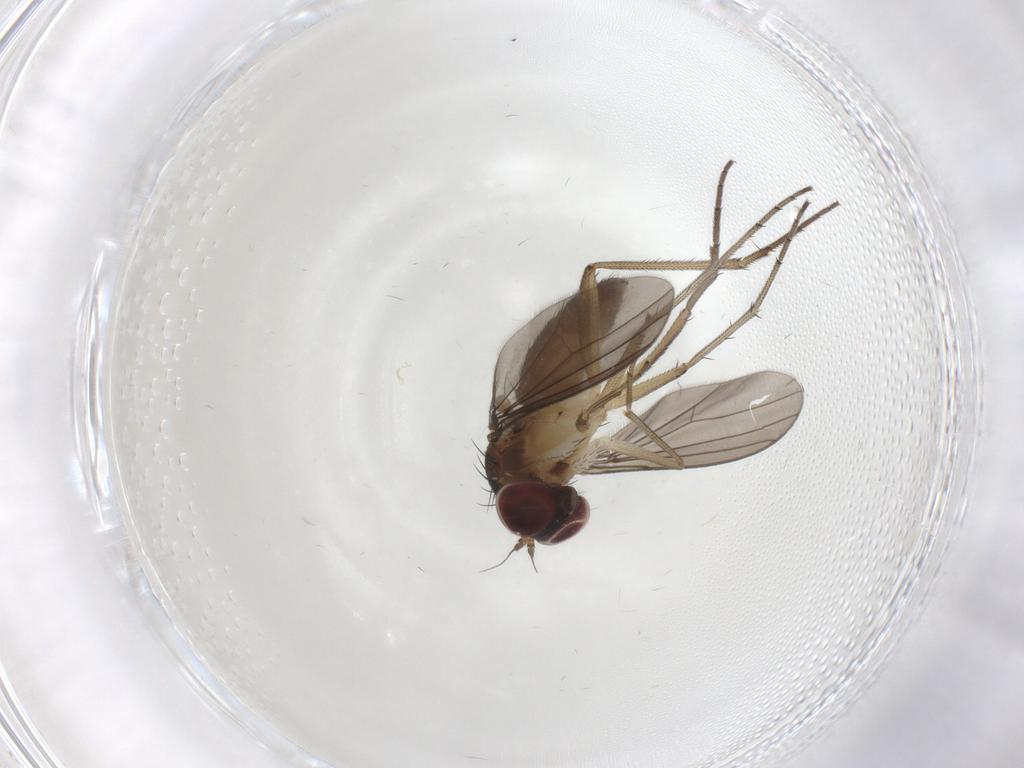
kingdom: Animalia
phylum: Arthropoda
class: Insecta
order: Diptera
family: Dolichopodidae
